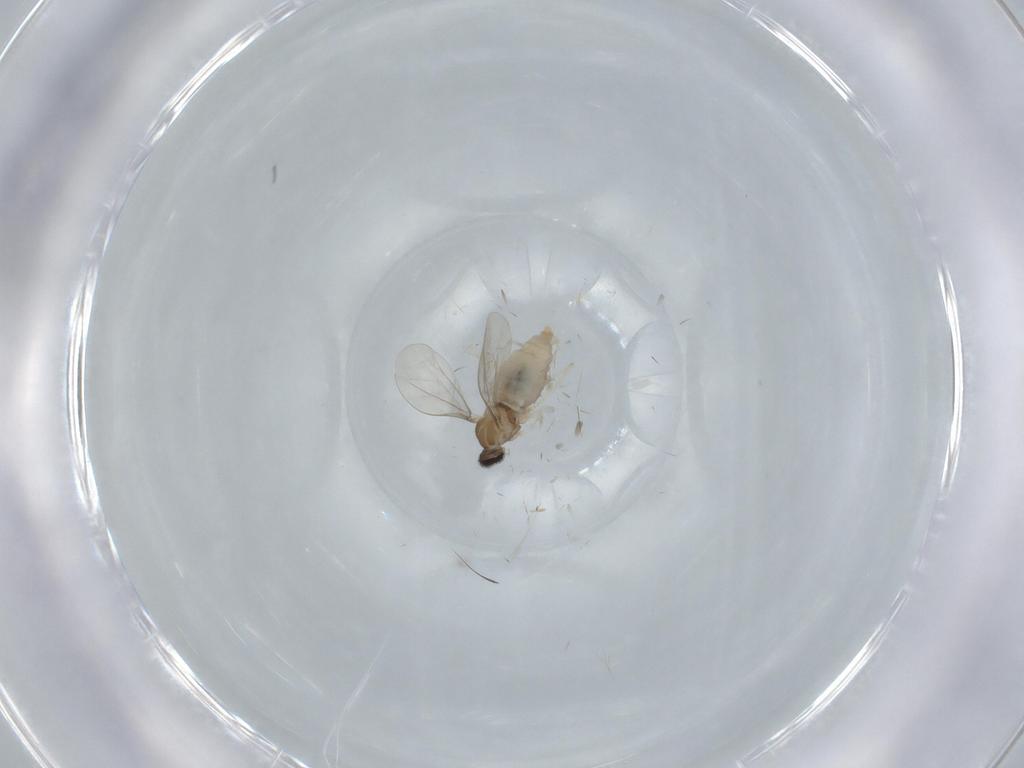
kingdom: Animalia
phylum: Arthropoda
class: Insecta
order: Diptera
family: Cecidomyiidae
